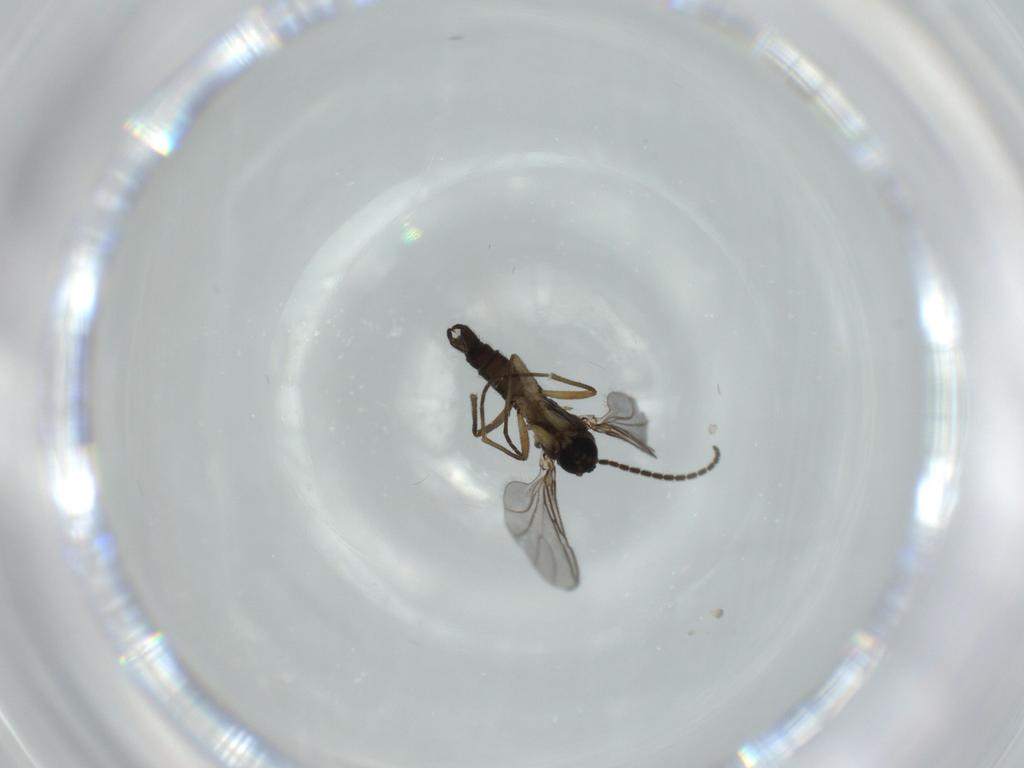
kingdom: Animalia
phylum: Arthropoda
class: Insecta
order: Diptera
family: Sciaridae
